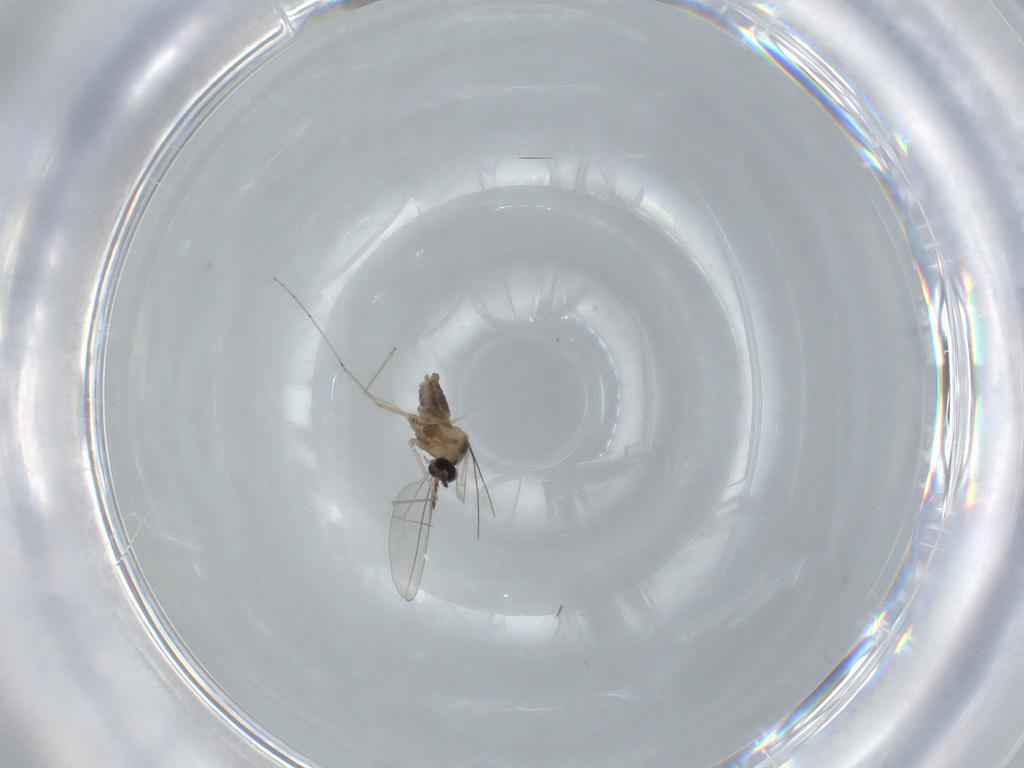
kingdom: Animalia
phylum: Arthropoda
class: Insecta
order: Diptera
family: Cecidomyiidae
